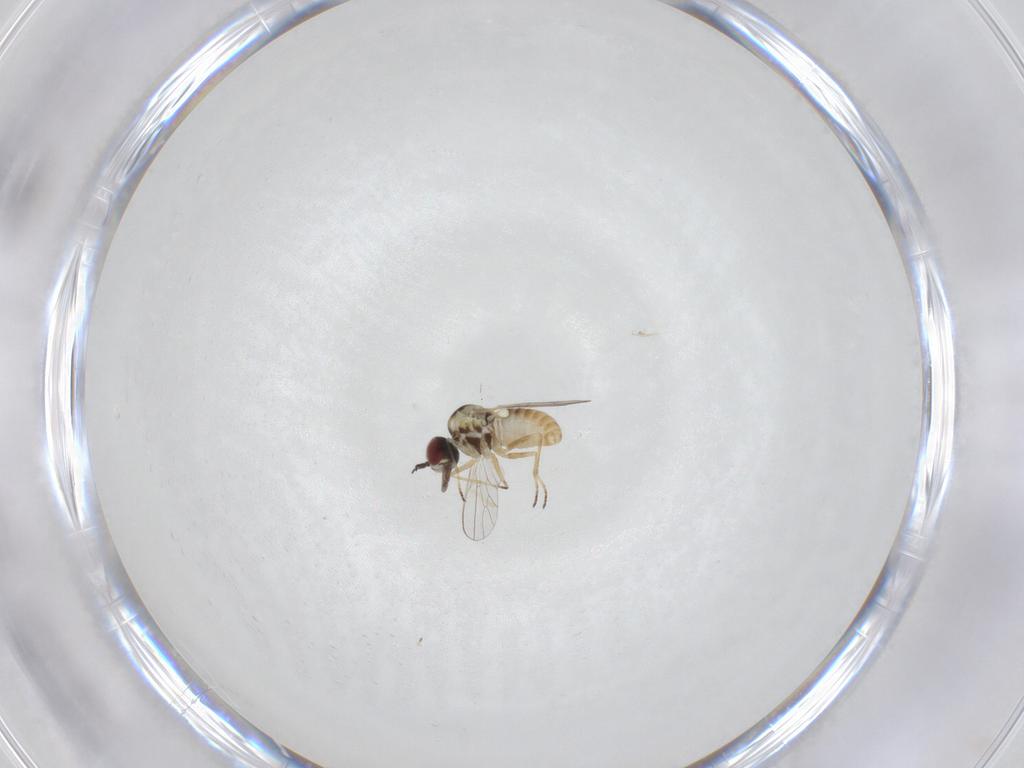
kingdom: Animalia
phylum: Arthropoda
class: Insecta
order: Diptera
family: Bombyliidae
